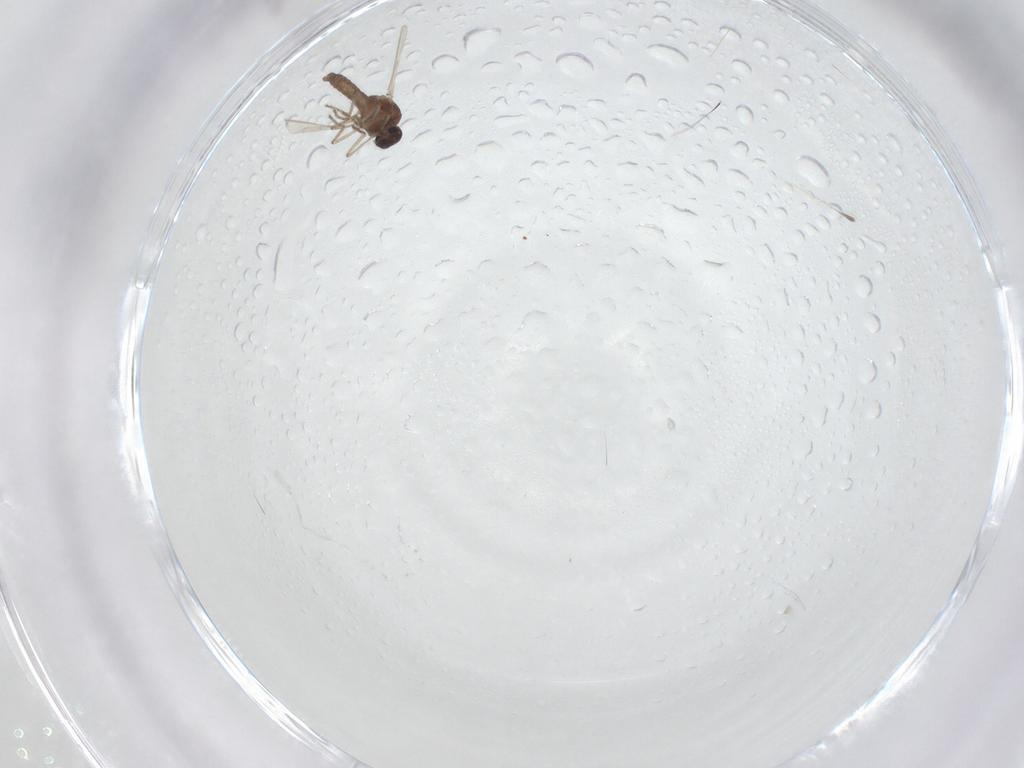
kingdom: Animalia
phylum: Arthropoda
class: Insecta
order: Diptera
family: Ceratopogonidae
